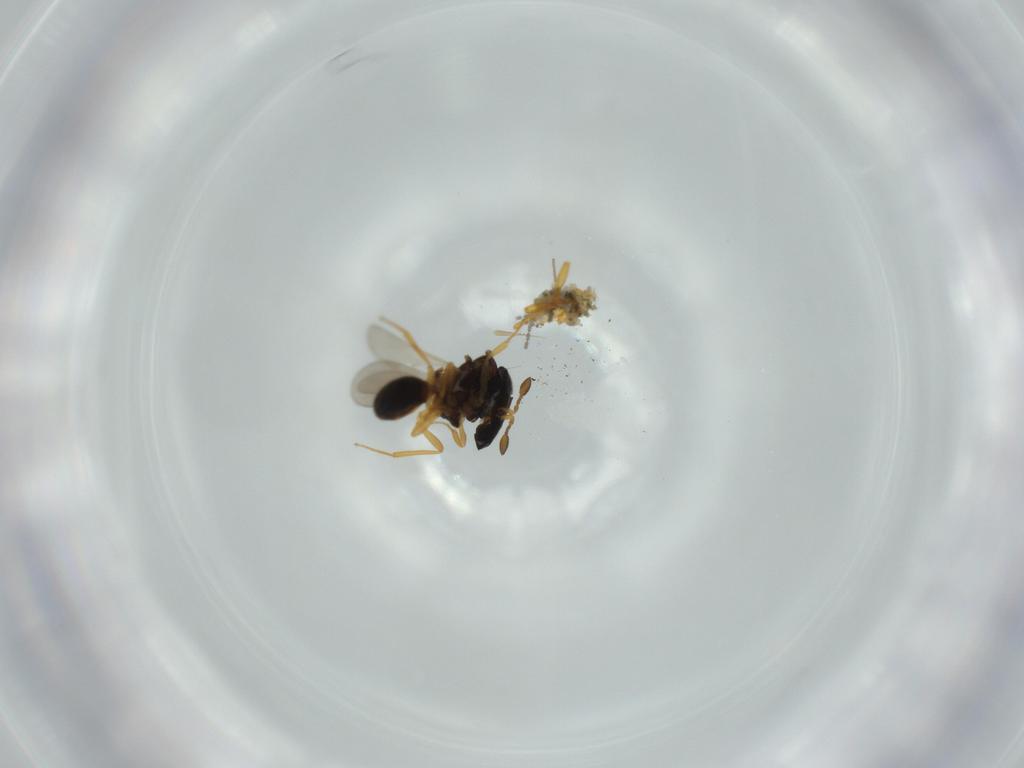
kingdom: Animalia
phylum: Arthropoda
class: Insecta
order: Hymenoptera
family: Scelionidae
